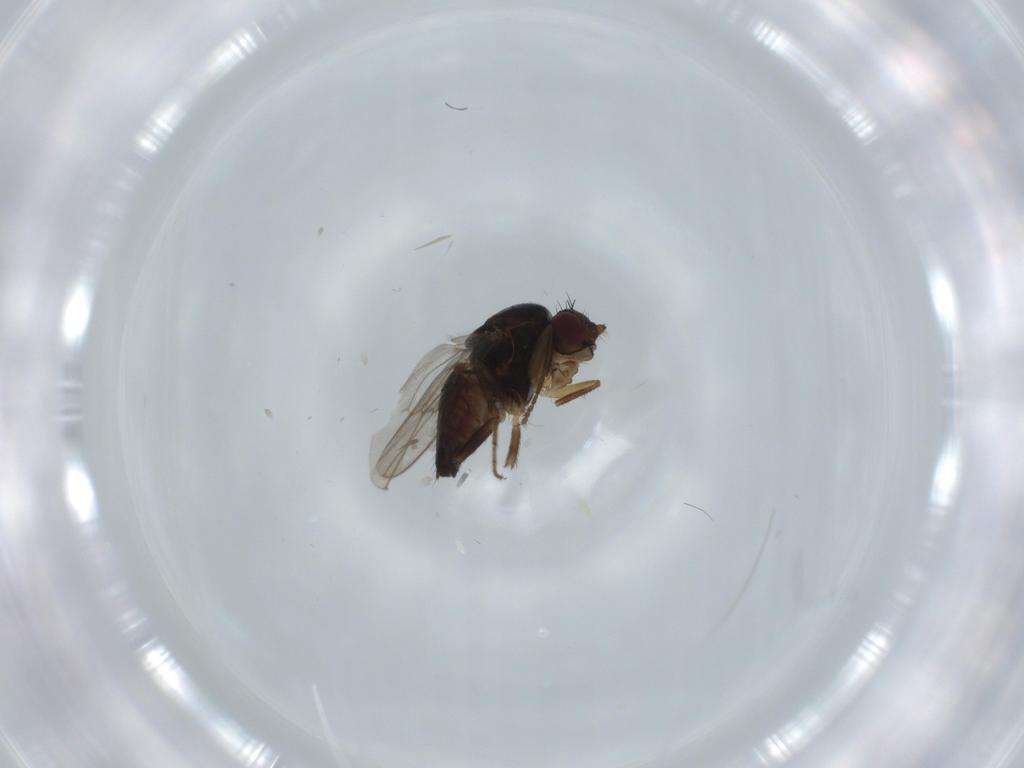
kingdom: Animalia
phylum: Arthropoda
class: Insecta
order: Diptera
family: Sphaeroceridae
